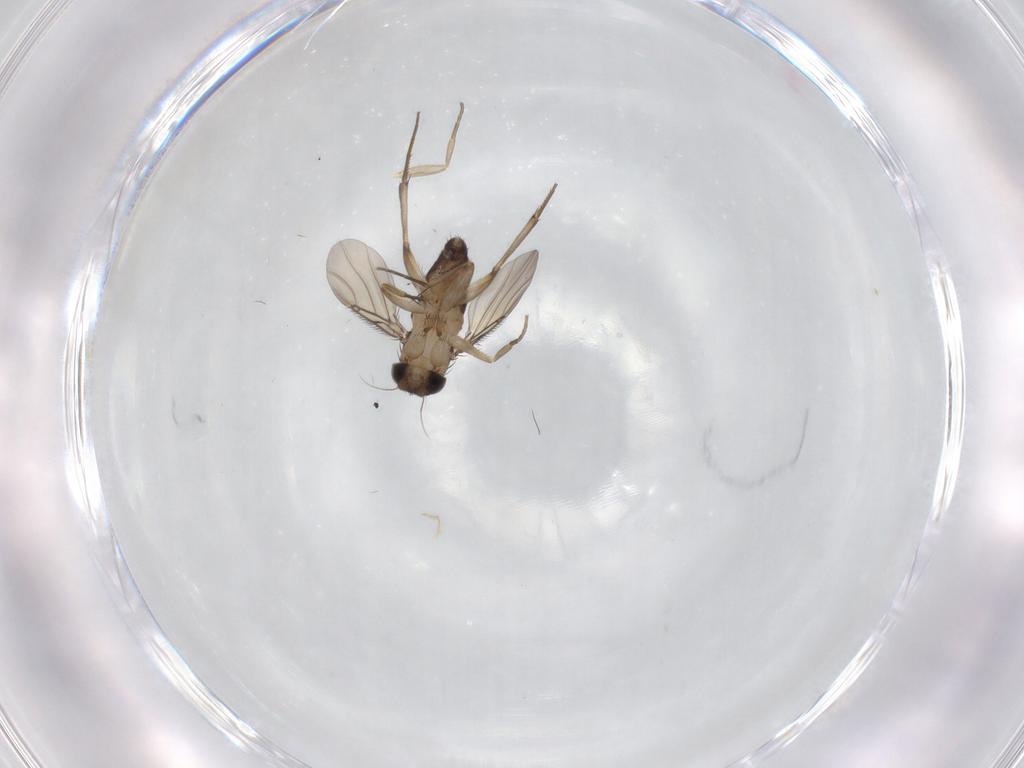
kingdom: Animalia
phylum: Arthropoda
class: Insecta
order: Diptera
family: Phoridae
